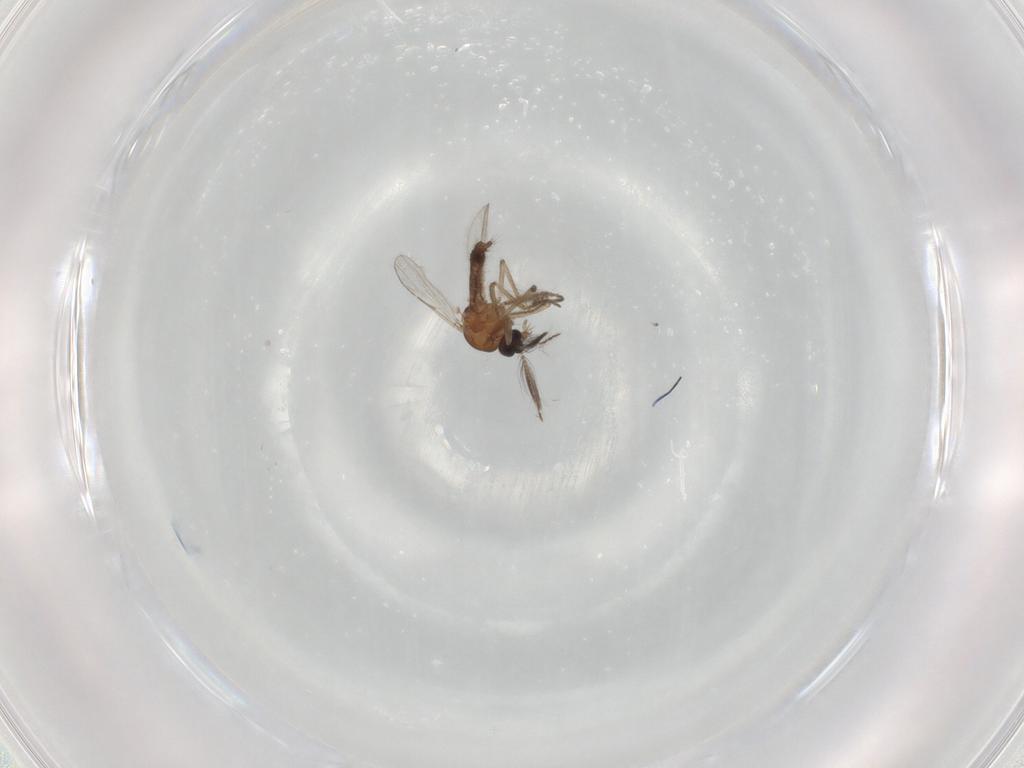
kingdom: Animalia
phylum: Arthropoda
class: Insecta
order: Diptera
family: Ceratopogonidae
